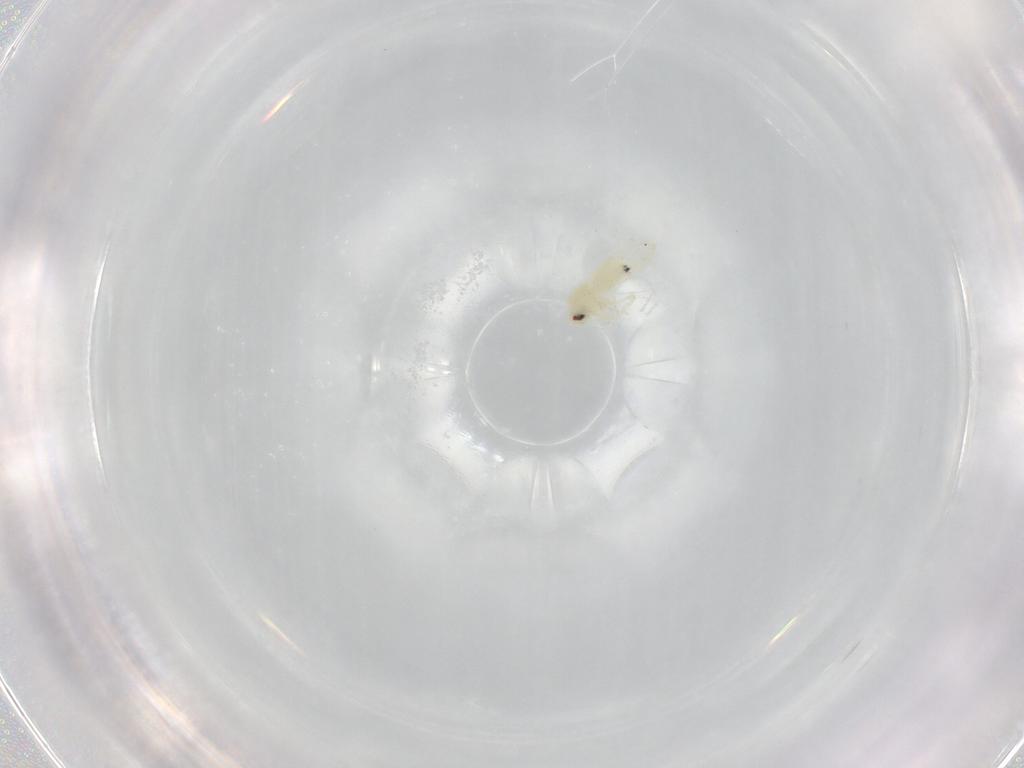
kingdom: Animalia
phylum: Arthropoda
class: Insecta
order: Hemiptera
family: Aleyrodidae
